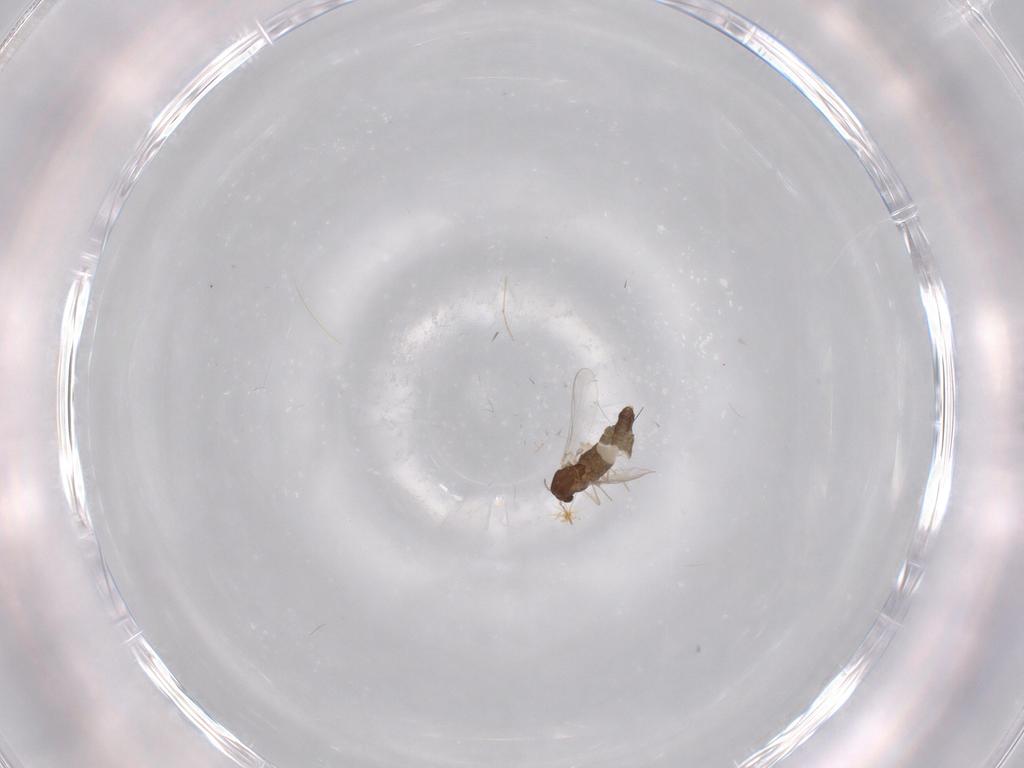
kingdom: Animalia
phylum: Arthropoda
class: Insecta
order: Diptera
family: Chironomidae
